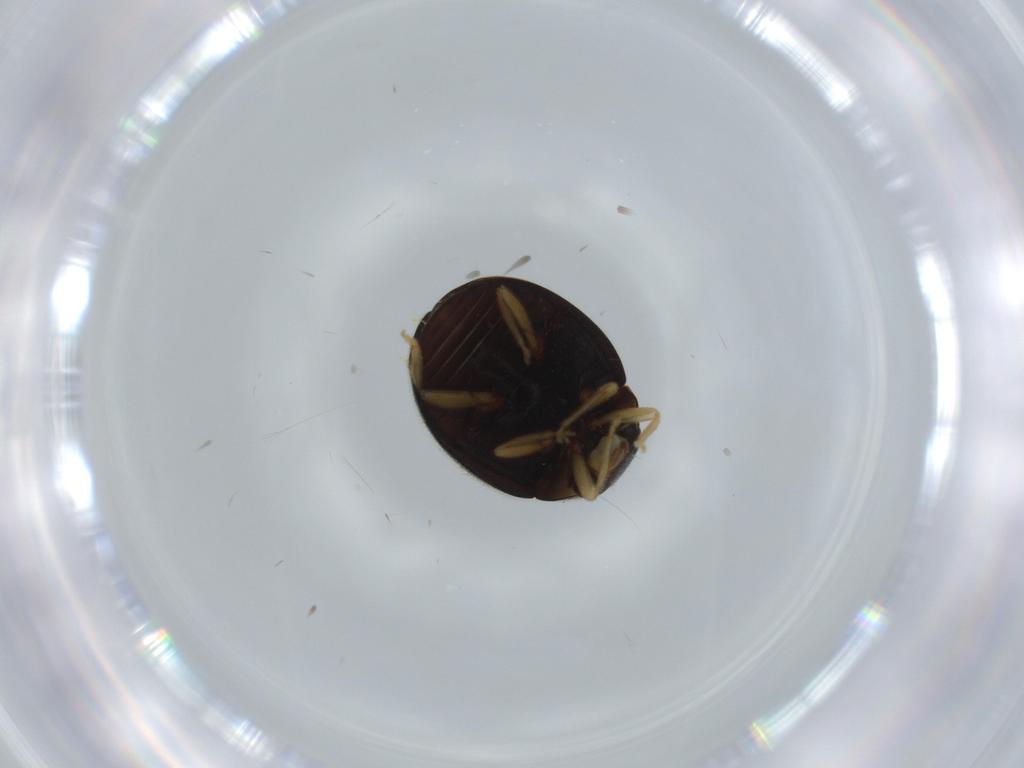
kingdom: Animalia
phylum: Arthropoda
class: Insecta
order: Coleoptera
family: Coccinellidae
